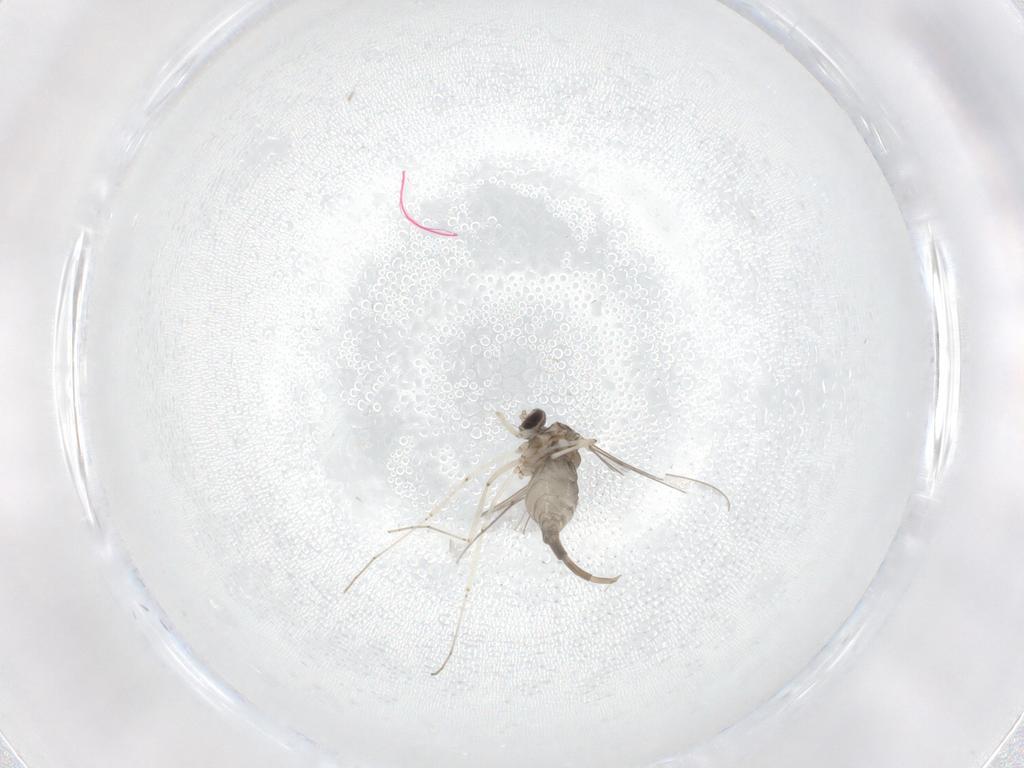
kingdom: Animalia
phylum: Arthropoda
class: Insecta
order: Diptera
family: Cecidomyiidae
